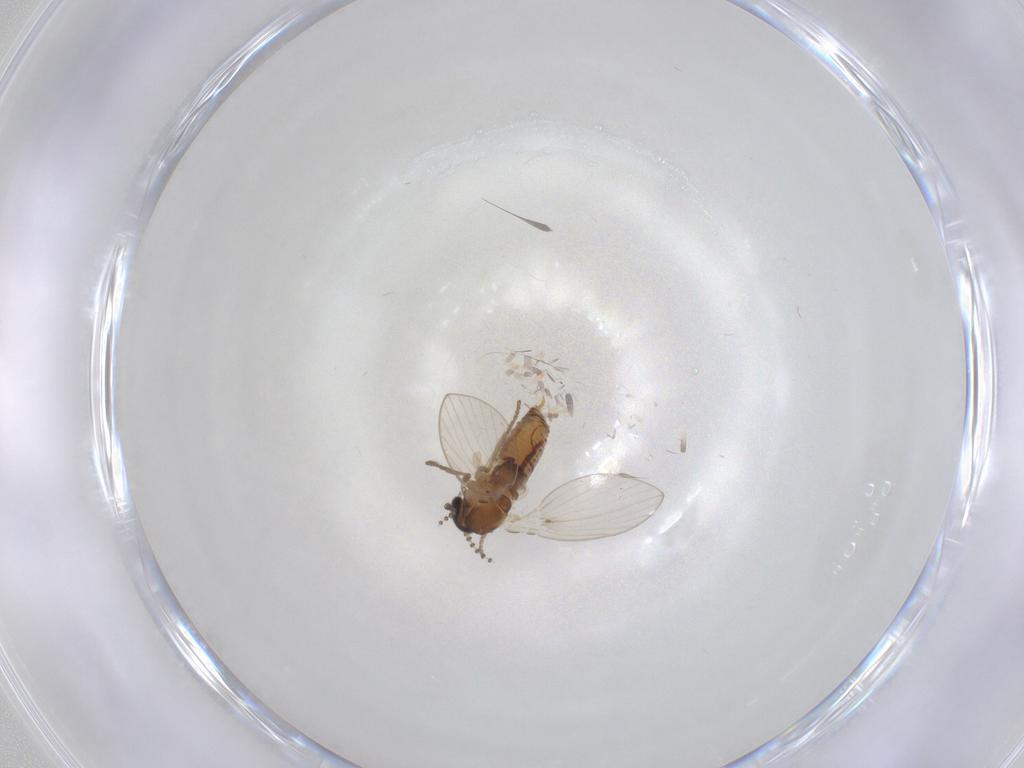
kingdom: Animalia
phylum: Arthropoda
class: Insecta
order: Diptera
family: Psychodidae
